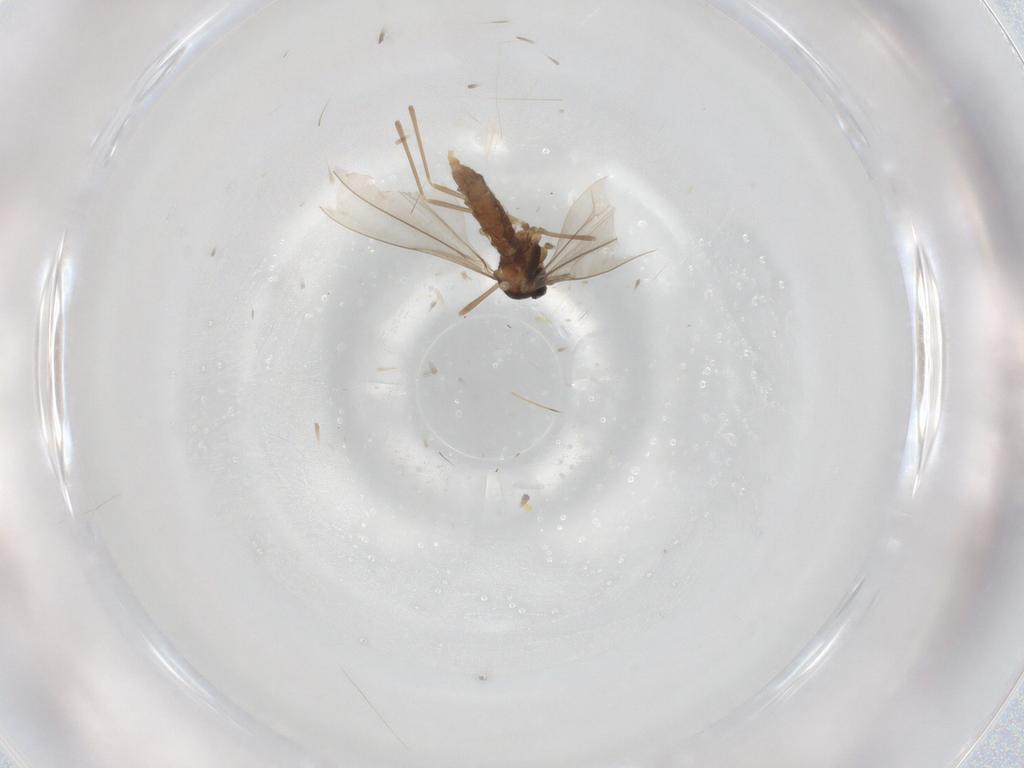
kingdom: Animalia
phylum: Arthropoda
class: Insecta
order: Diptera
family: Cecidomyiidae
